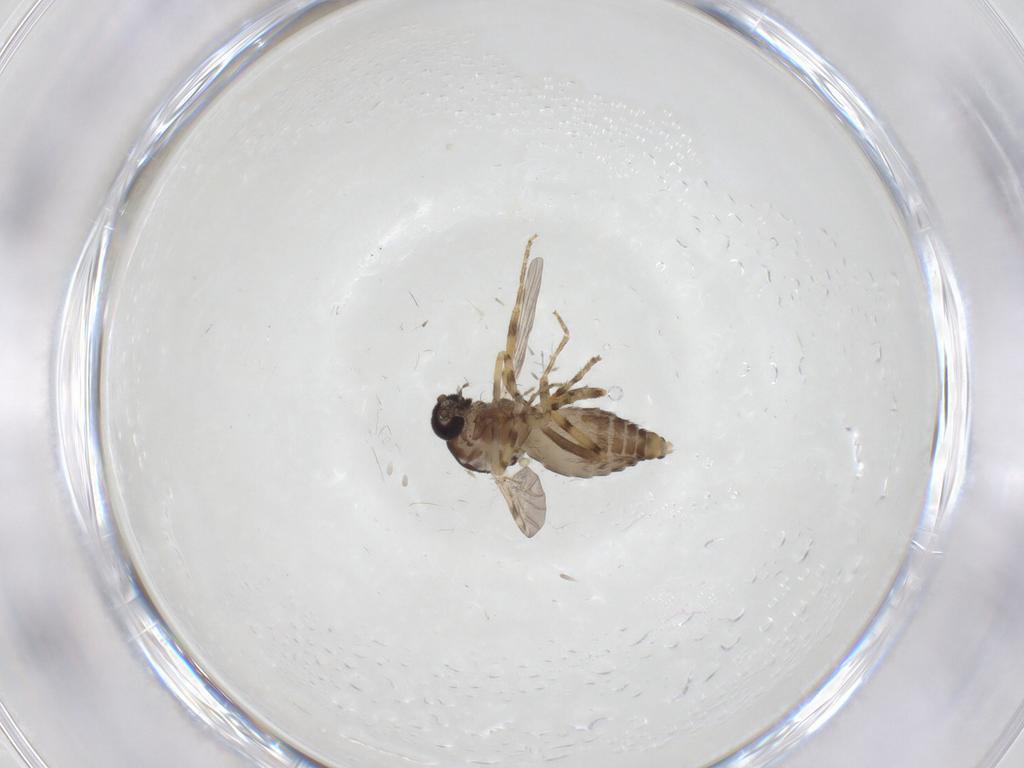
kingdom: Animalia
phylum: Arthropoda
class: Insecta
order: Diptera
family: Ceratopogonidae
